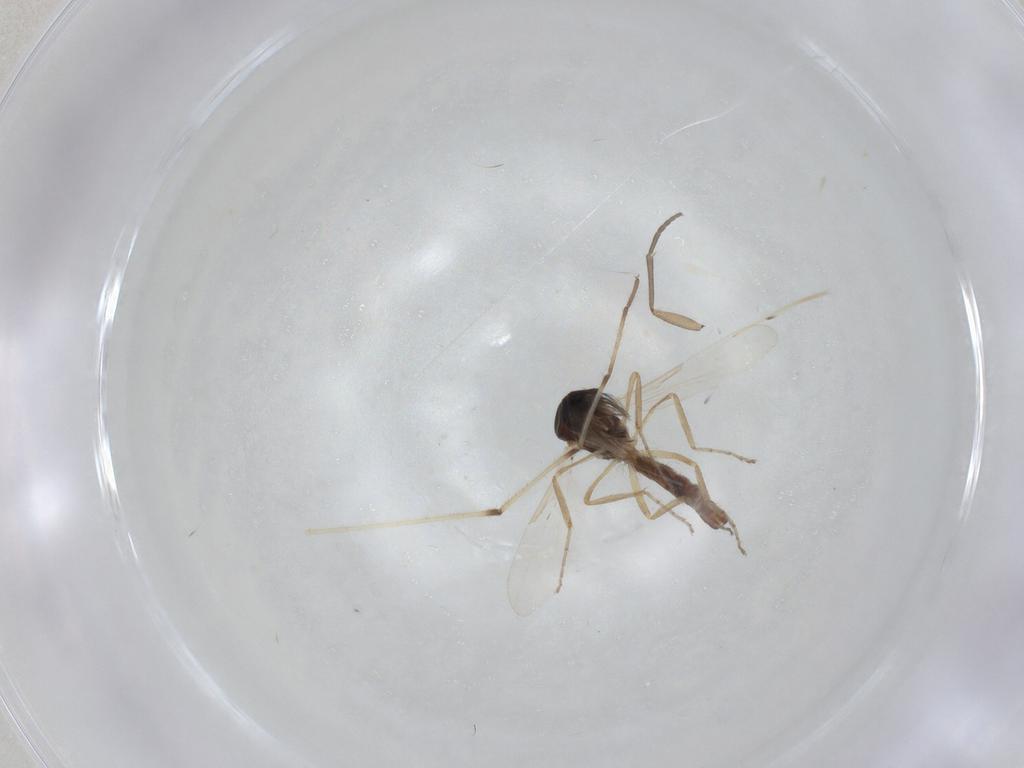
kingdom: Animalia
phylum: Arthropoda
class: Insecta
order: Diptera
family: Ceratopogonidae
